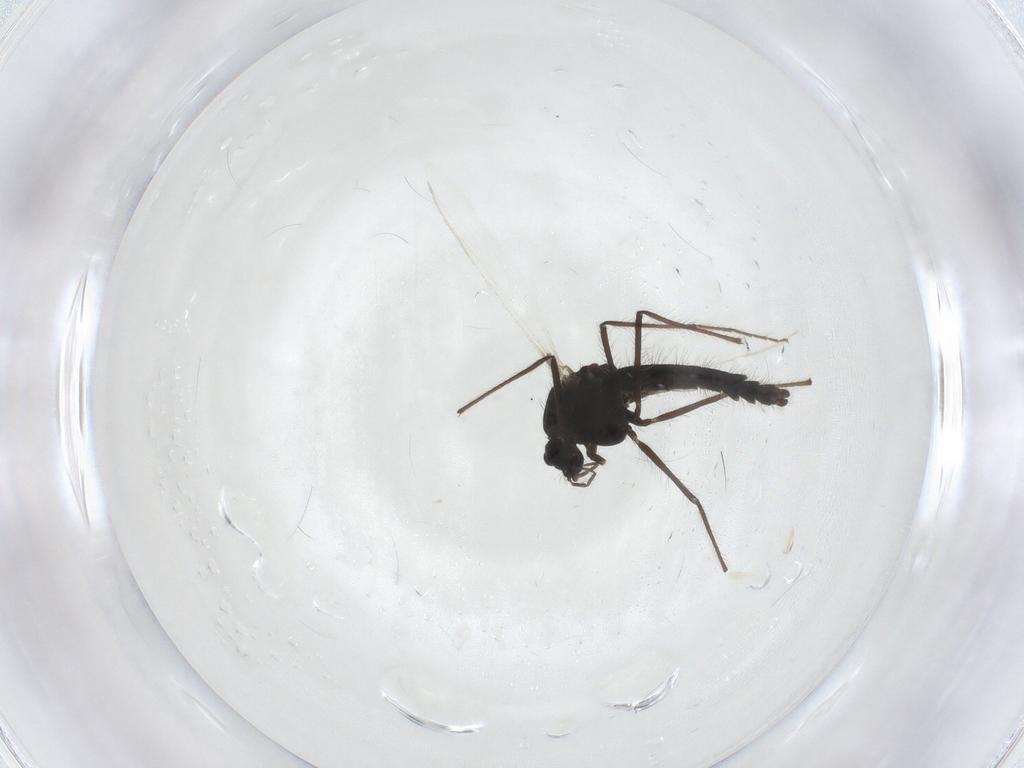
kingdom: Animalia
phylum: Arthropoda
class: Insecta
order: Diptera
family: Chironomidae
